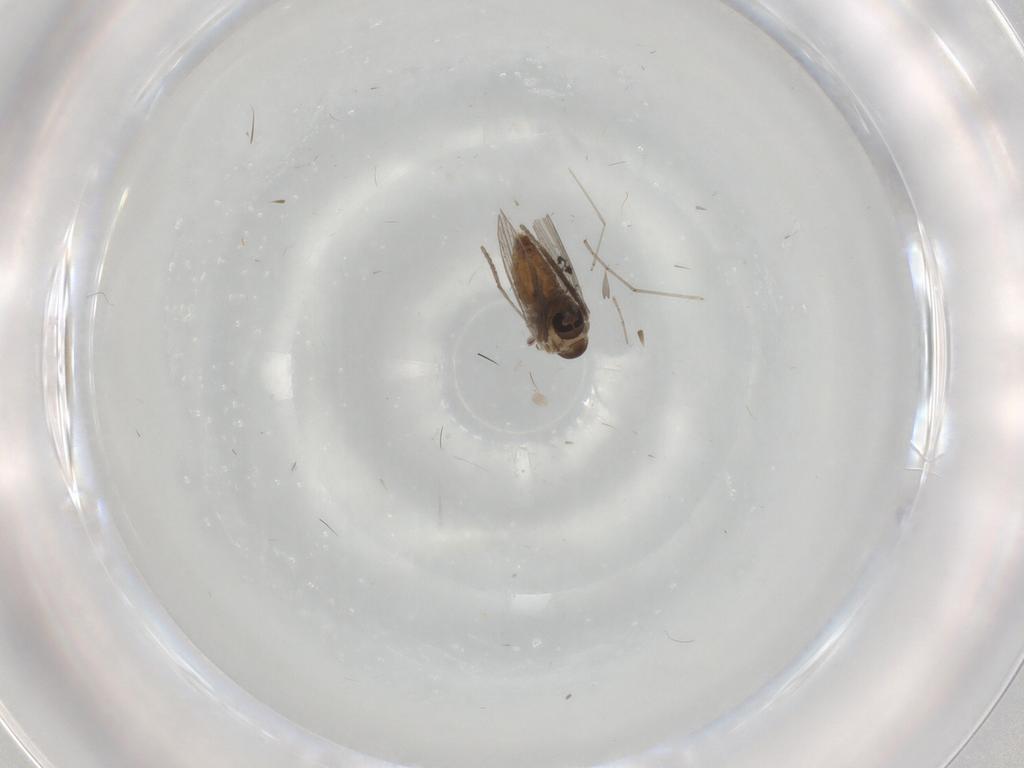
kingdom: Animalia
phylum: Arthropoda
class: Insecta
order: Diptera
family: Psychodidae
